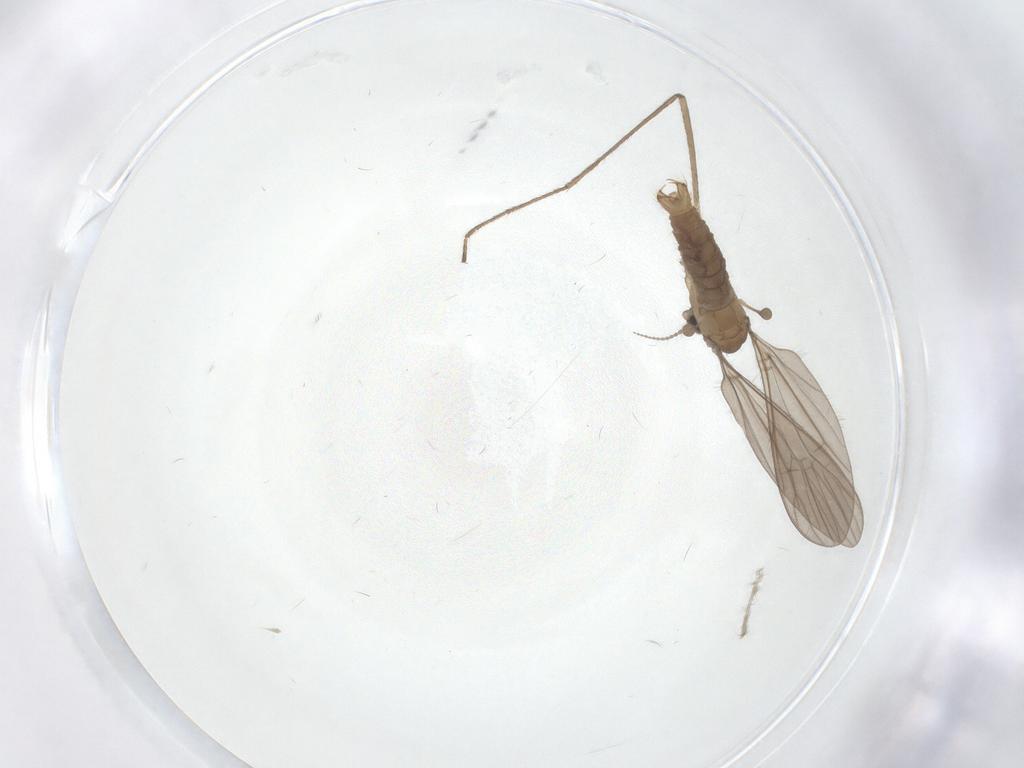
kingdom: Animalia
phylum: Arthropoda
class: Insecta
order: Diptera
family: Limoniidae
